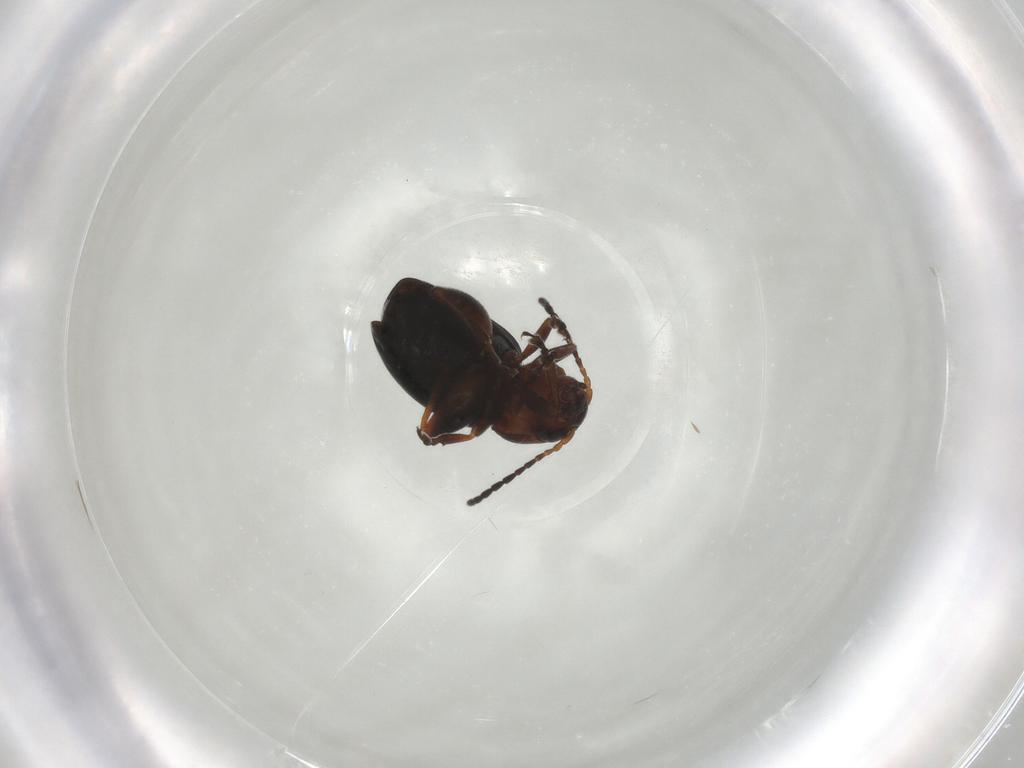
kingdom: Animalia
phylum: Arthropoda
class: Insecta
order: Coleoptera
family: Chrysomelidae
